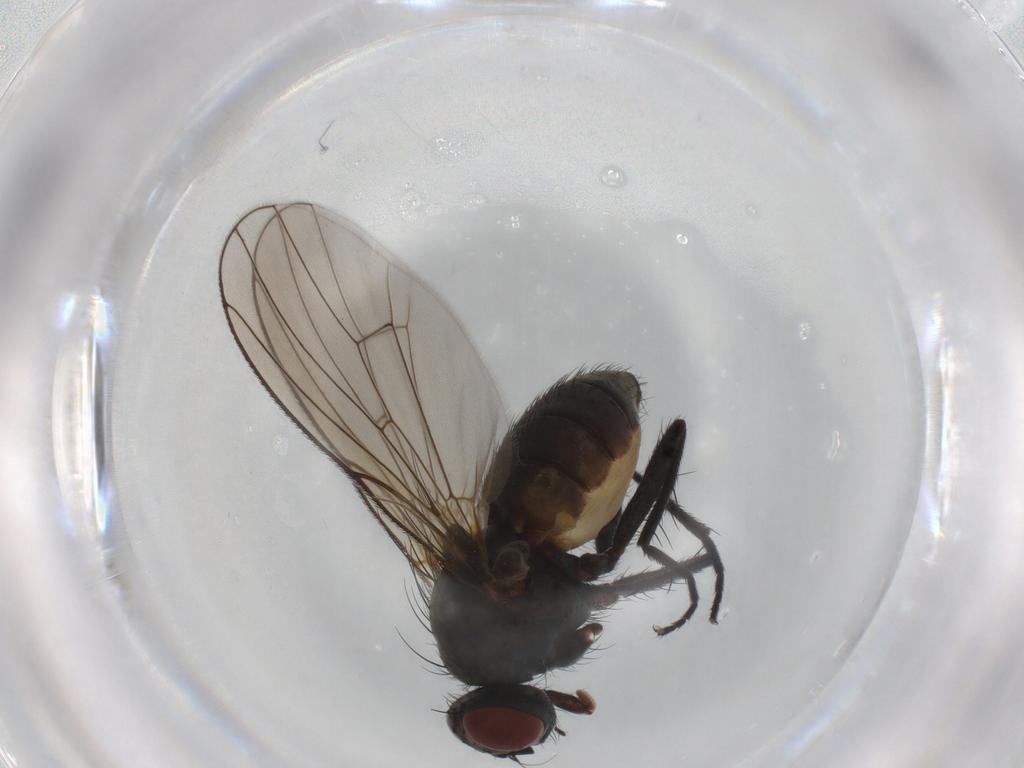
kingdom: Animalia
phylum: Arthropoda
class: Insecta
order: Diptera
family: Muscidae
